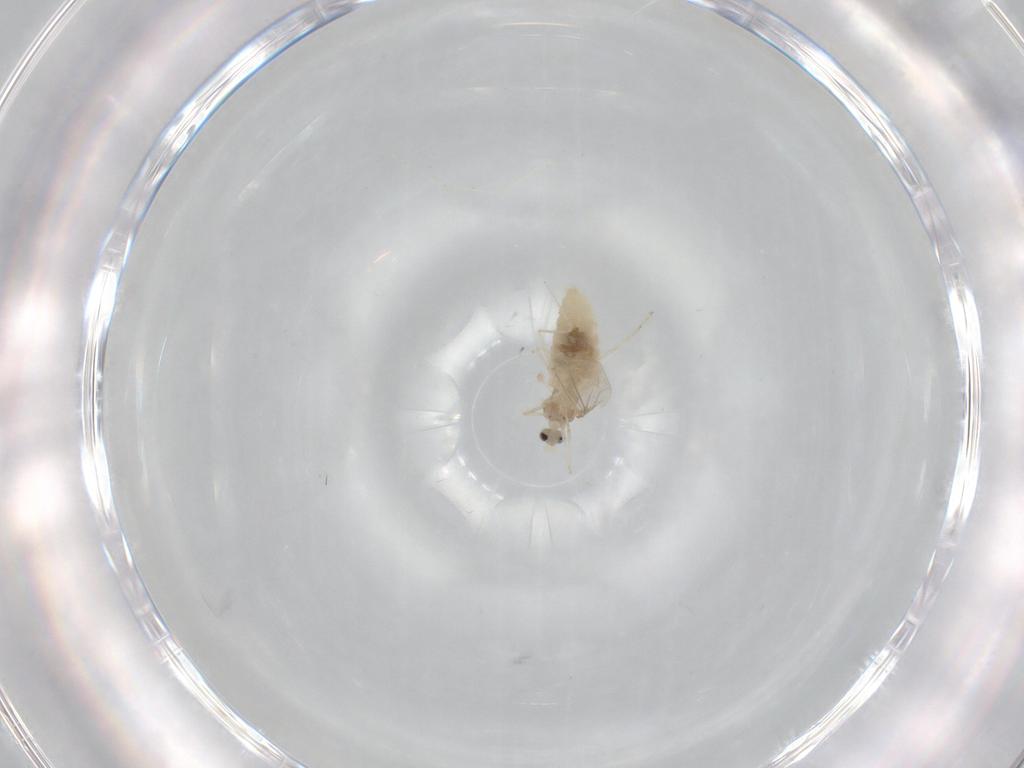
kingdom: Animalia
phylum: Arthropoda
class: Insecta
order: Diptera
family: Cecidomyiidae
